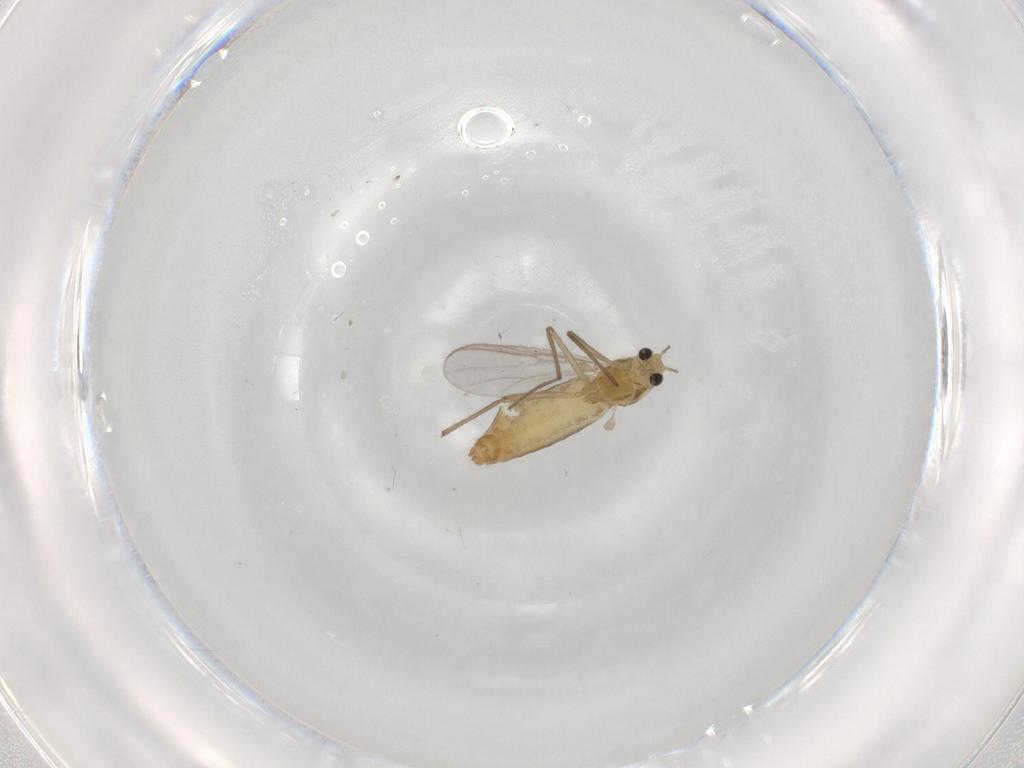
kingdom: Animalia
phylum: Arthropoda
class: Insecta
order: Diptera
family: Chironomidae
